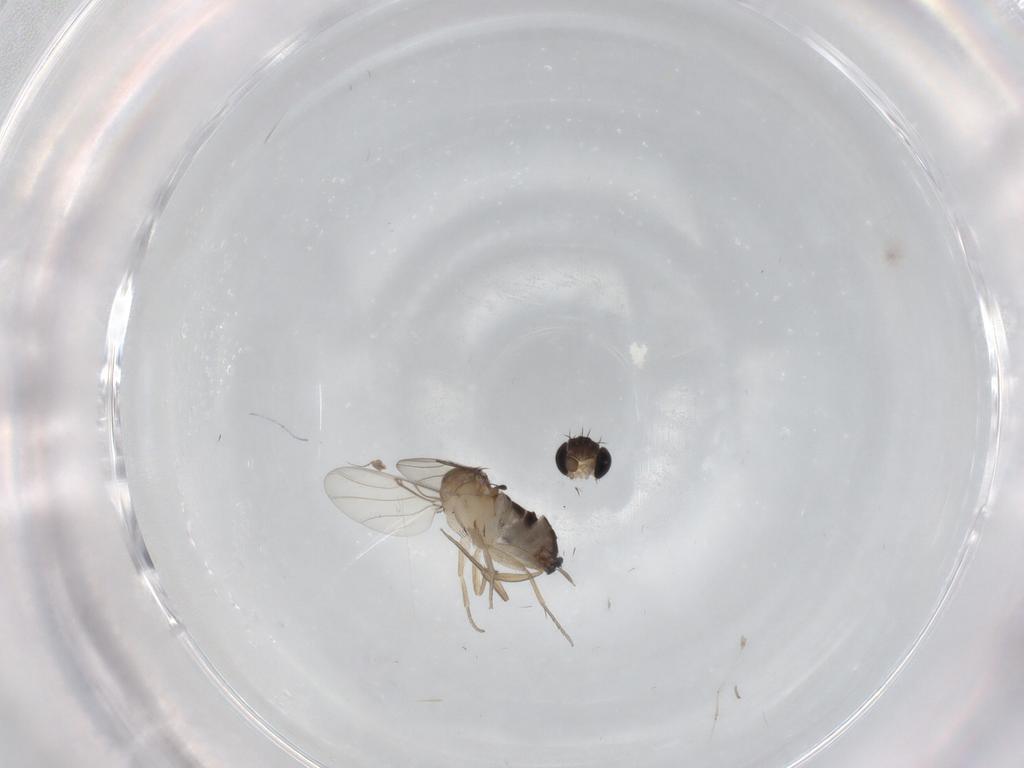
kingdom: Animalia
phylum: Arthropoda
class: Insecta
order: Diptera
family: Phoridae
